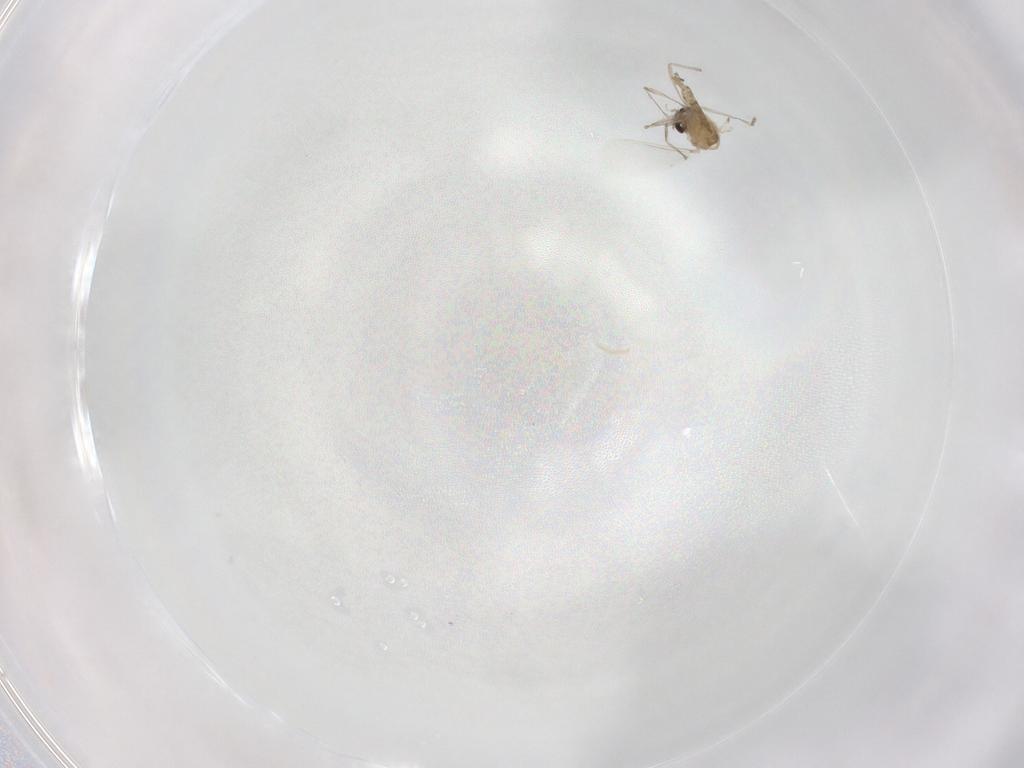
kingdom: Animalia
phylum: Arthropoda
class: Insecta
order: Diptera
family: Chironomidae
